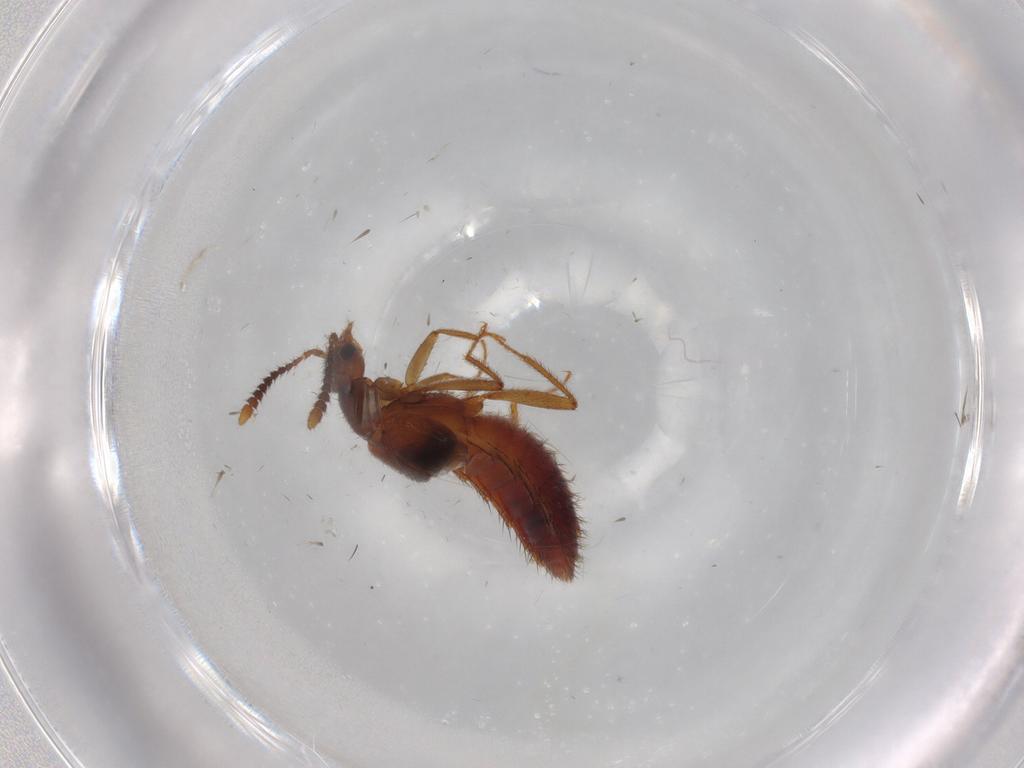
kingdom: Animalia
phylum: Arthropoda
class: Insecta
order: Coleoptera
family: Staphylinidae
